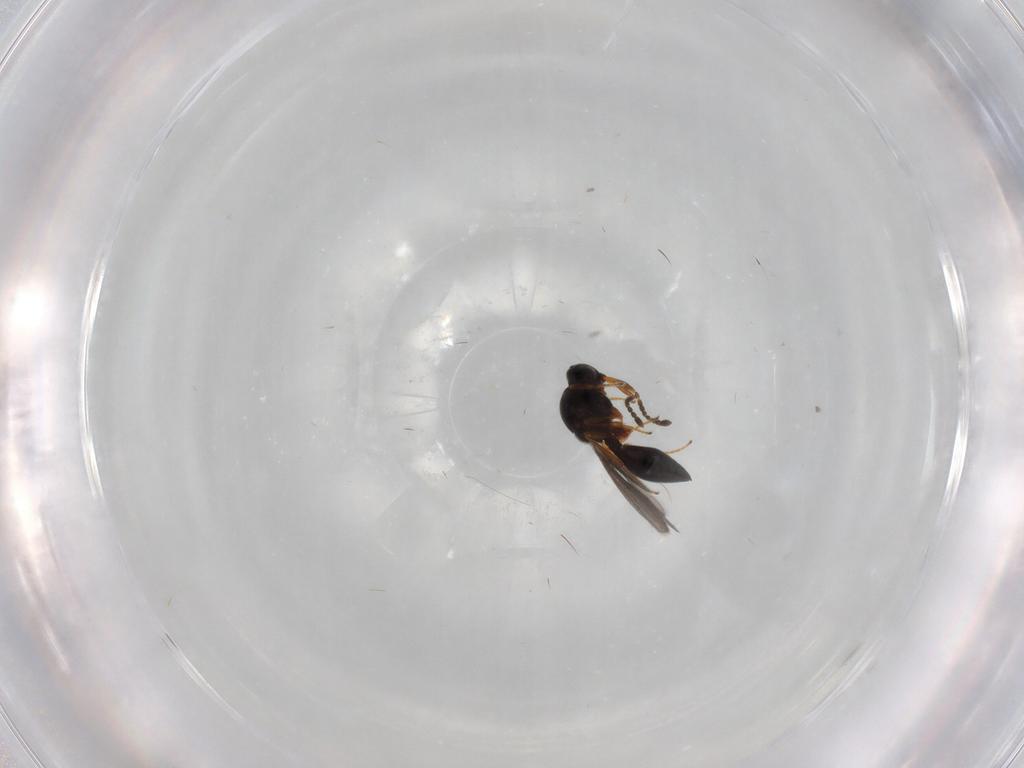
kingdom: Animalia
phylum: Arthropoda
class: Insecta
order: Hymenoptera
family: Platygastridae
